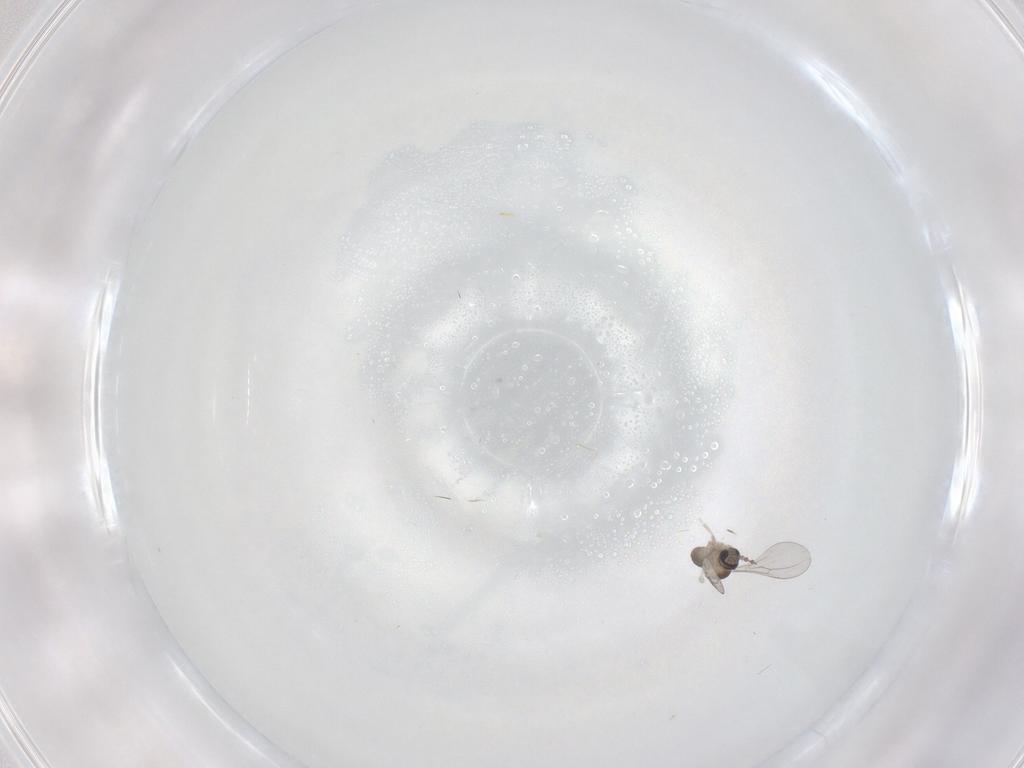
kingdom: Animalia
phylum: Arthropoda
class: Insecta
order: Diptera
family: Cecidomyiidae
